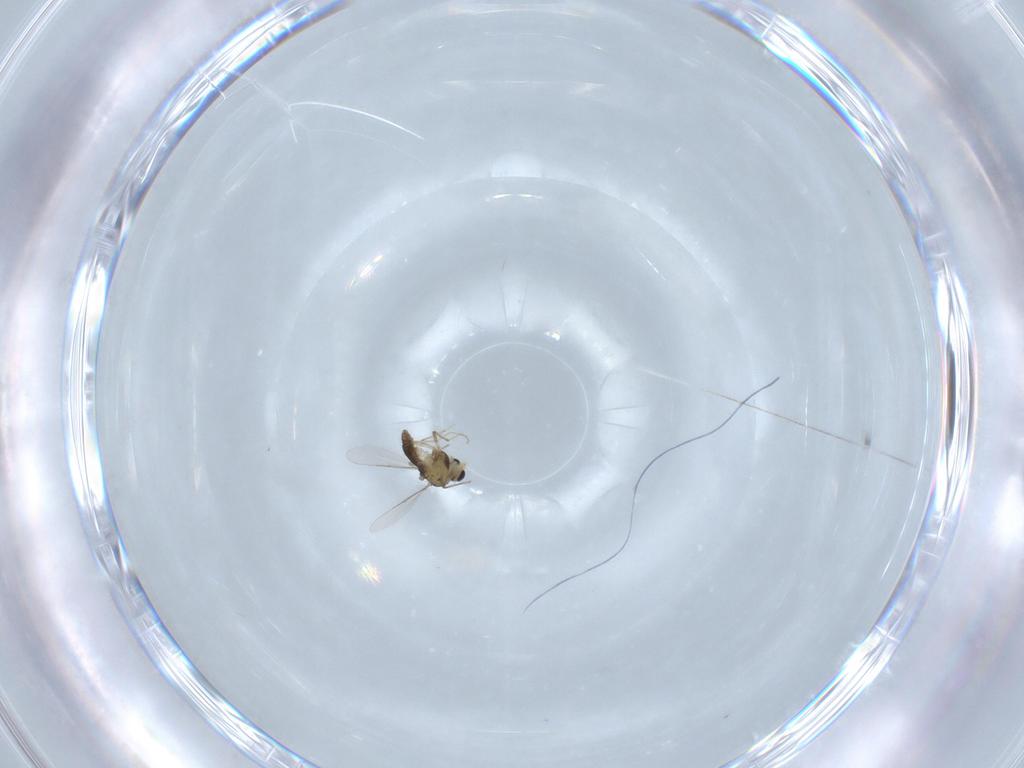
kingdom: Animalia
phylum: Arthropoda
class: Insecta
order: Diptera
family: Chironomidae
